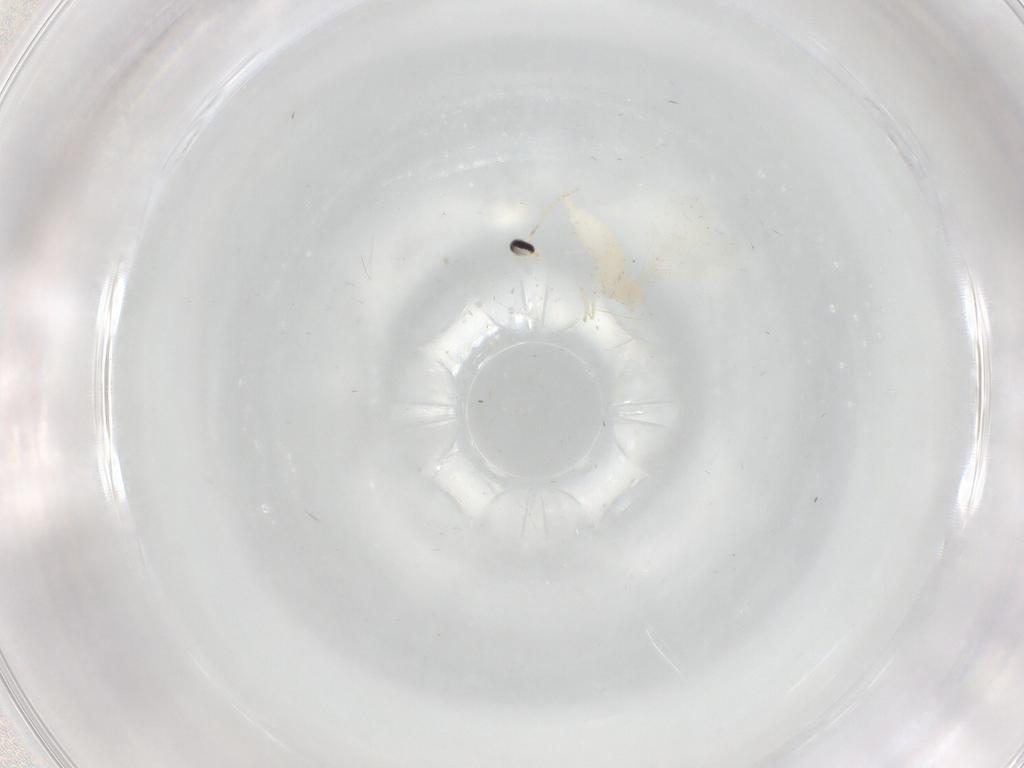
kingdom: Animalia
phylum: Arthropoda
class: Insecta
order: Diptera
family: Cecidomyiidae
